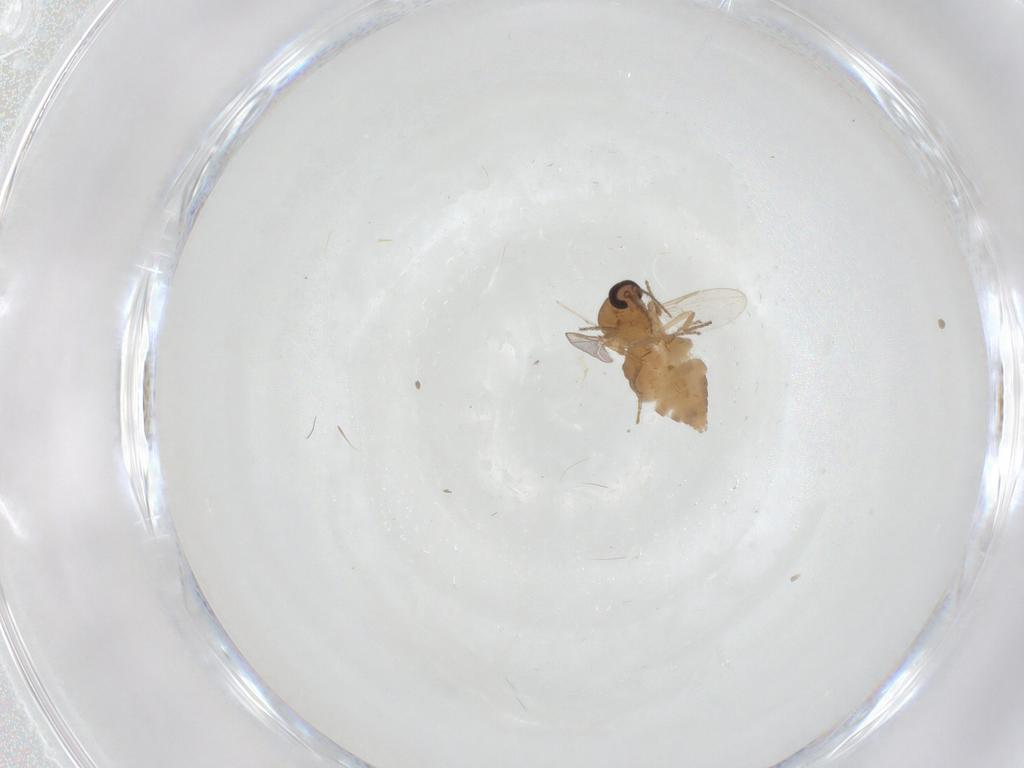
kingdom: Animalia
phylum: Arthropoda
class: Insecta
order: Diptera
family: Ceratopogonidae
